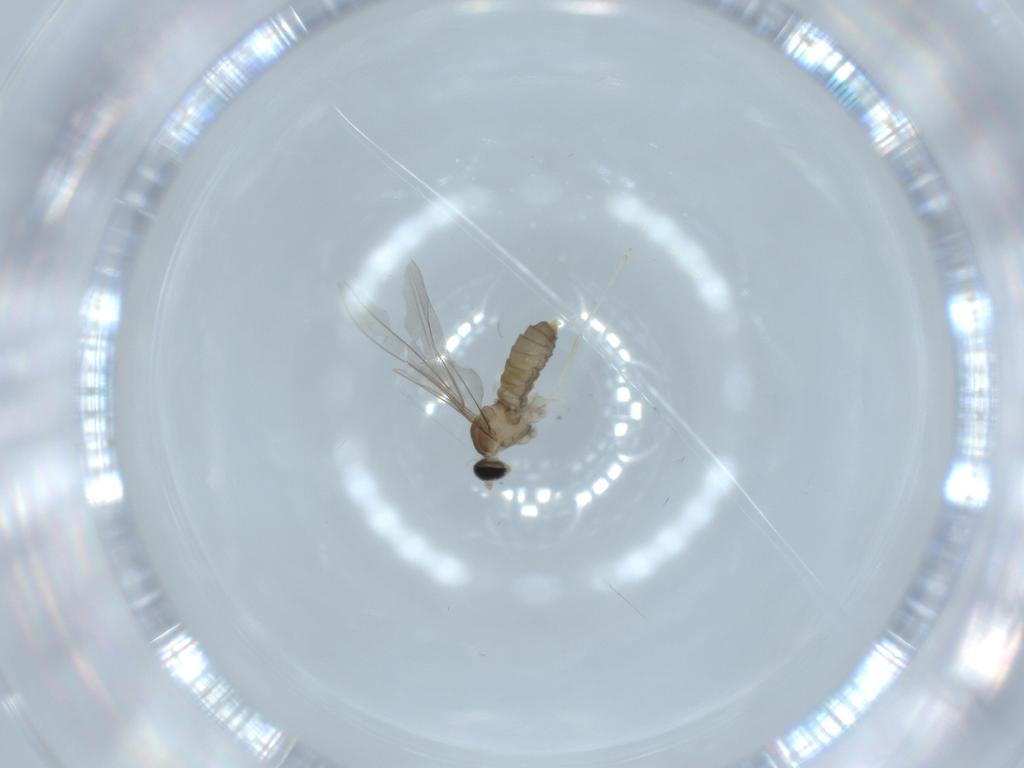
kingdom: Animalia
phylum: Arthropoda
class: Insecta
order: Diptera
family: Cecidomyiidae
